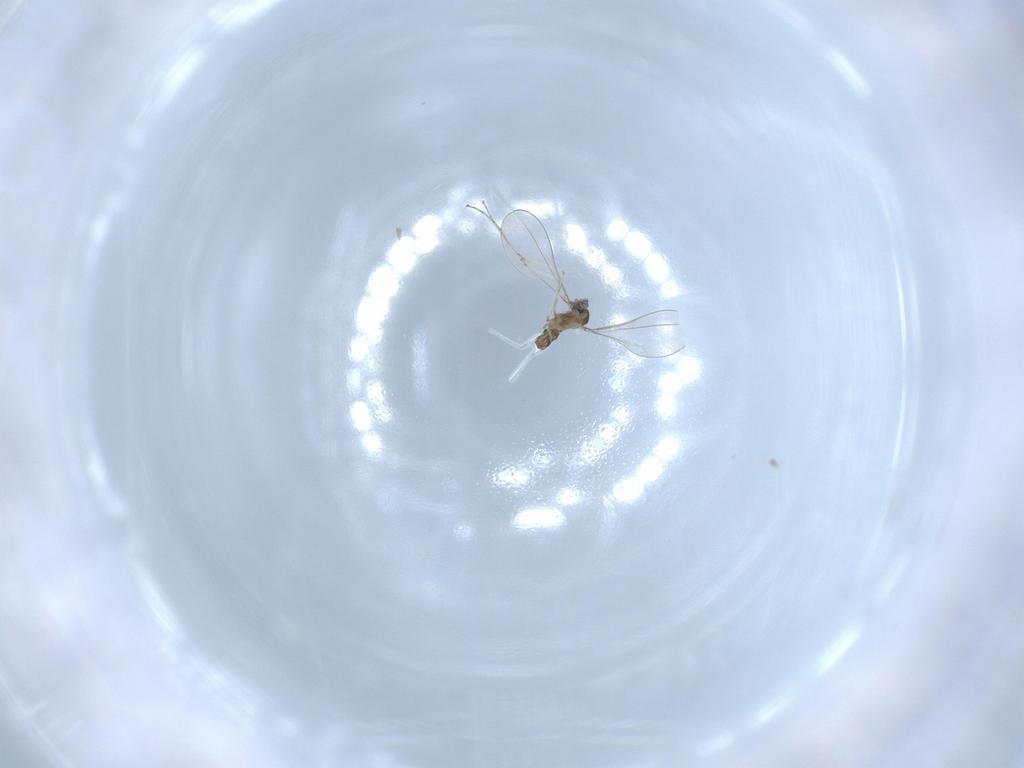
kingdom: Animalia
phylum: Arthropoda
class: Insecta
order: Diptera
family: Cecidomyiidae
